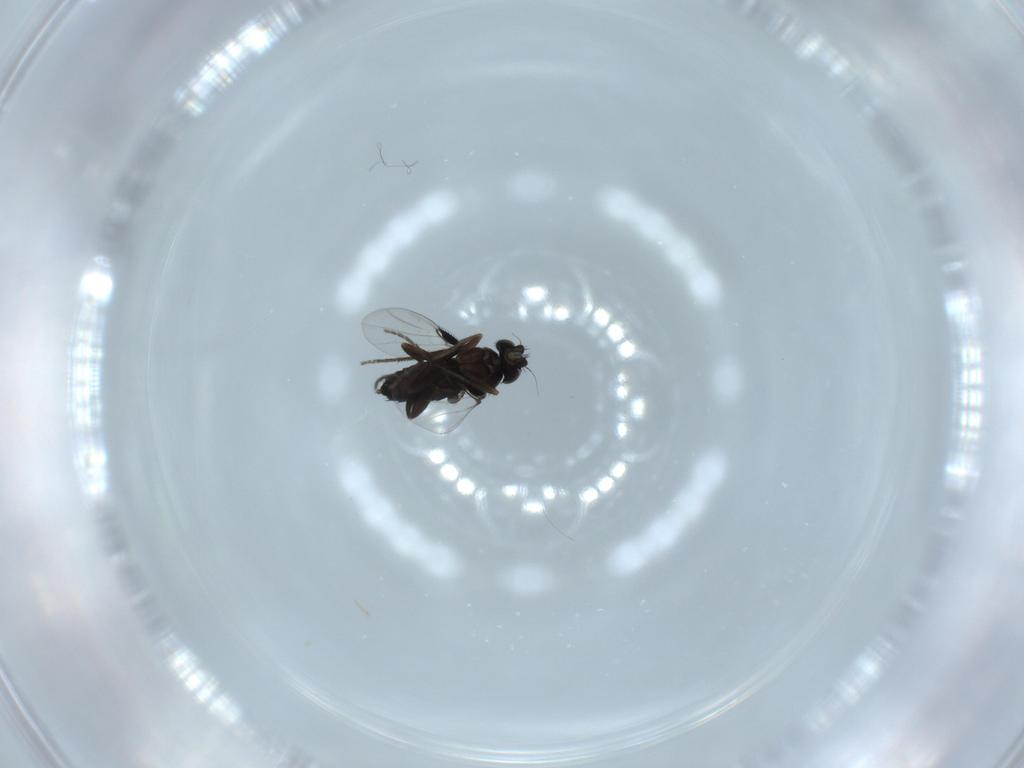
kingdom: Animalia
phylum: Arthropoda
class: Insecta
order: Diptera
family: Phoridae
